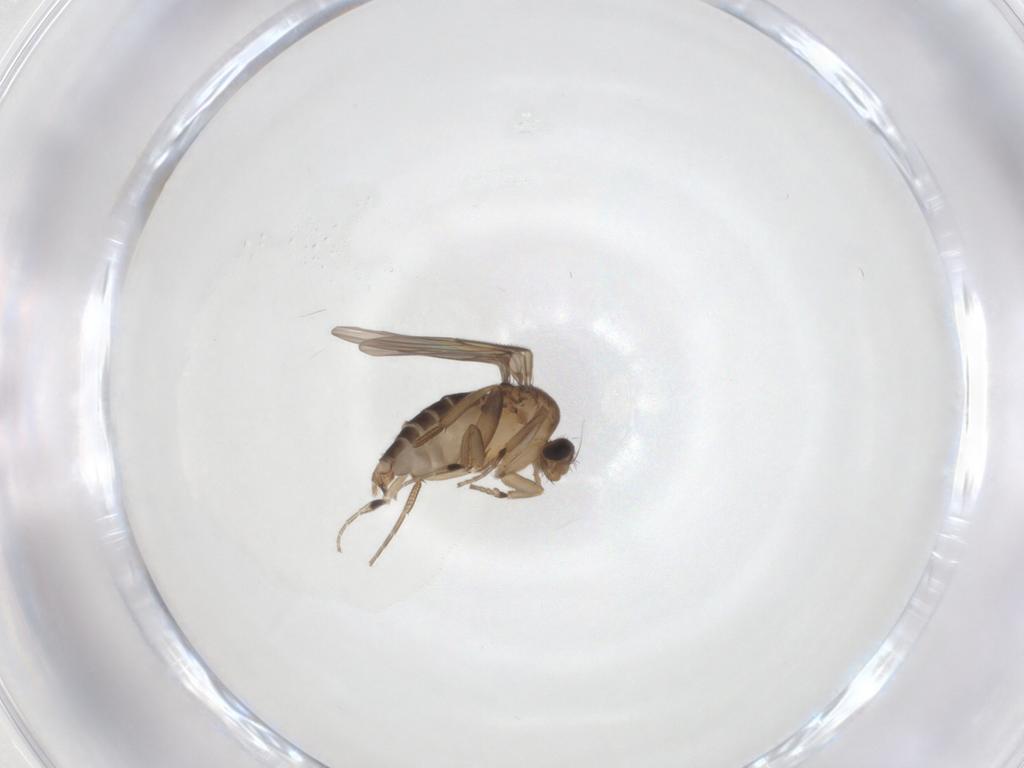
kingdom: Animalia
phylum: Arthropoda
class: Insecta
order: Diptera
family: Phoridae
